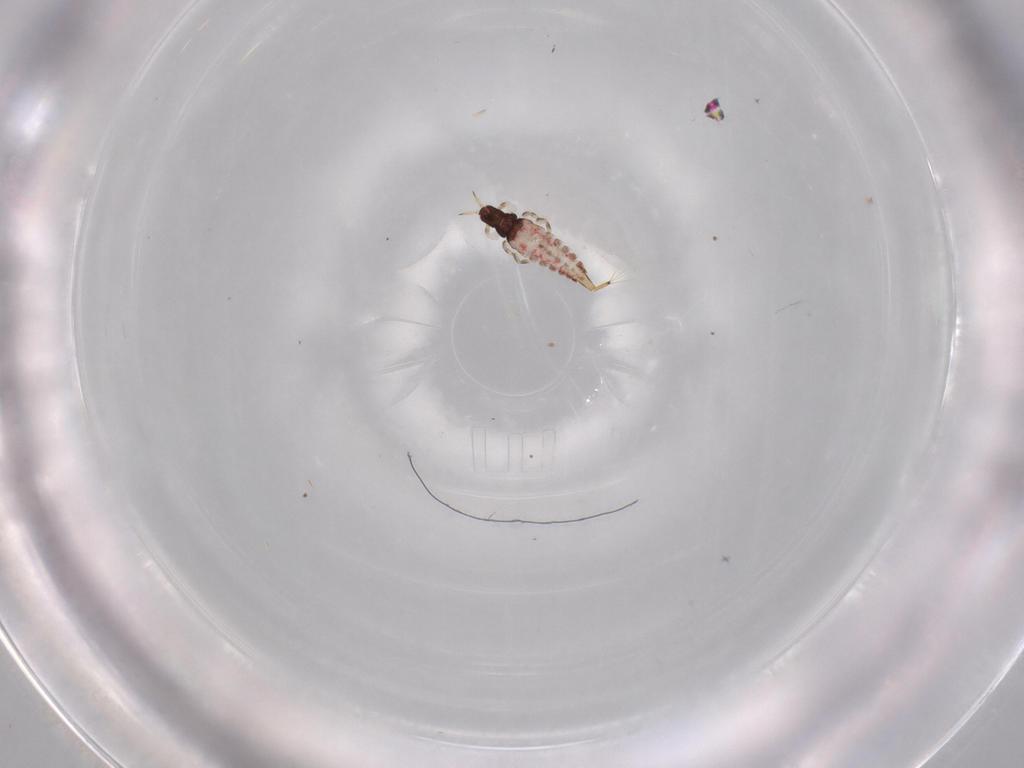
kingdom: Animalia
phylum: Arthropoda
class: Insecta
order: Thysanoptera
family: Phlaeothripidae
